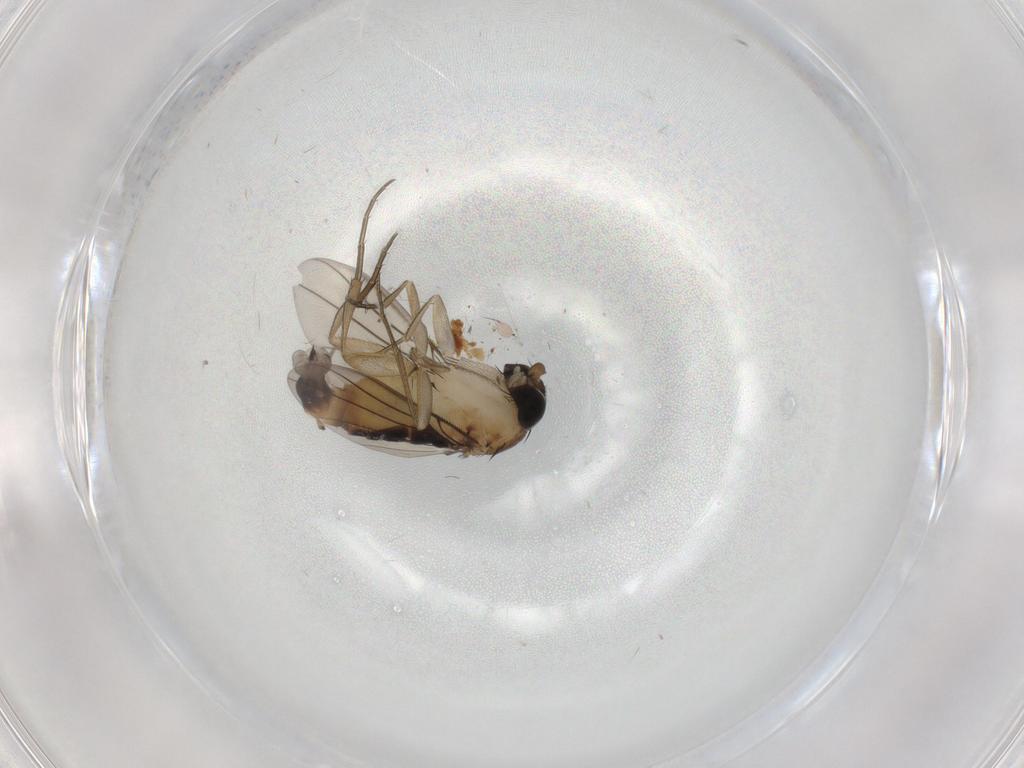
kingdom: Animalia
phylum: Arthropoda
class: Insecta
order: Diptera
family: Phoridae
